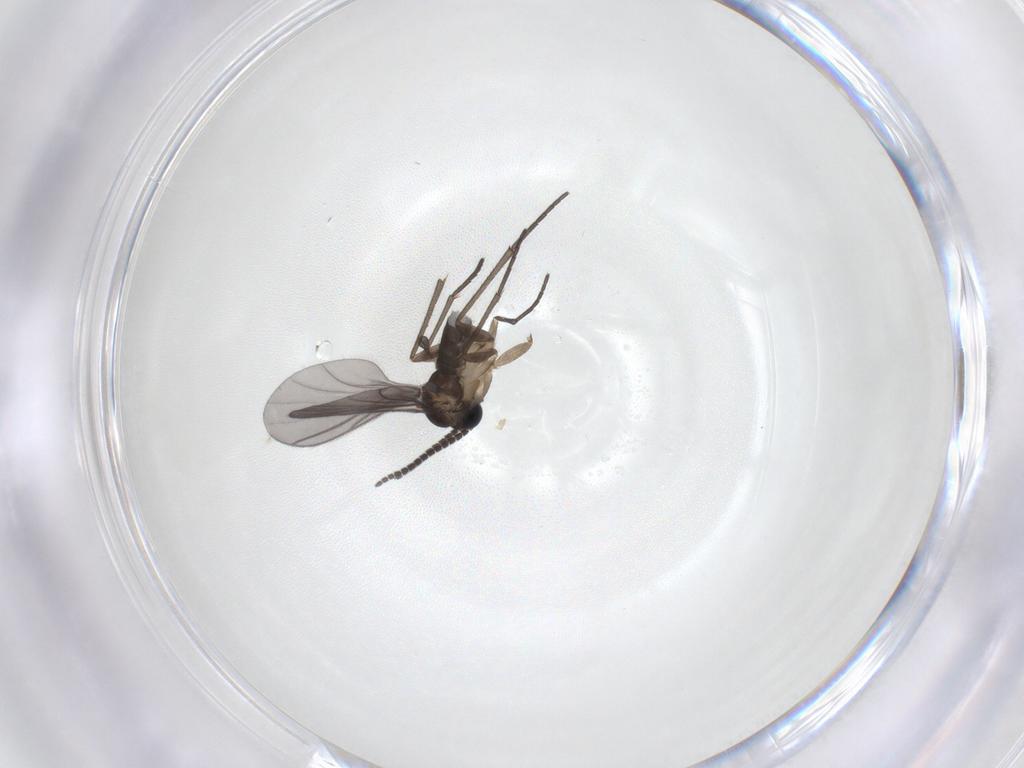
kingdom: Animalia
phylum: Arthropoda
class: Insecta
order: Diptera
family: Sciaridae
